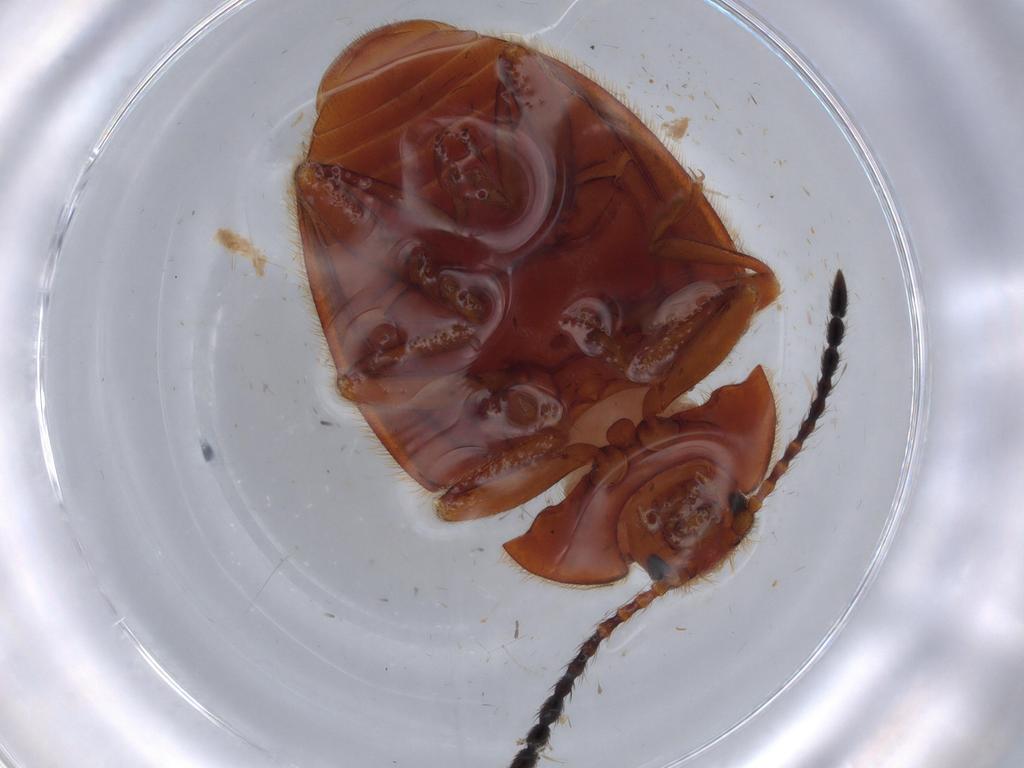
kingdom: Animalia
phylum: Arthropoda
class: Insecta
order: Coleoptera
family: Endomychidae
